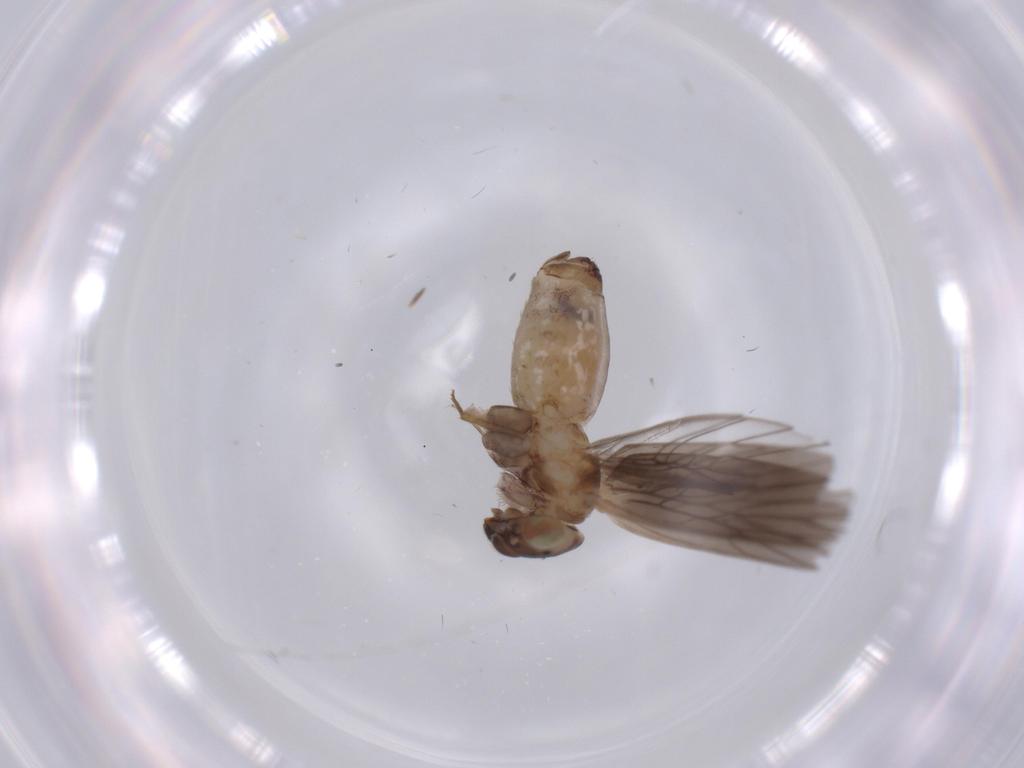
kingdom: Animalia
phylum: Arthropoda
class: Insecta
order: Psocodea
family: Lepidopsocidae
